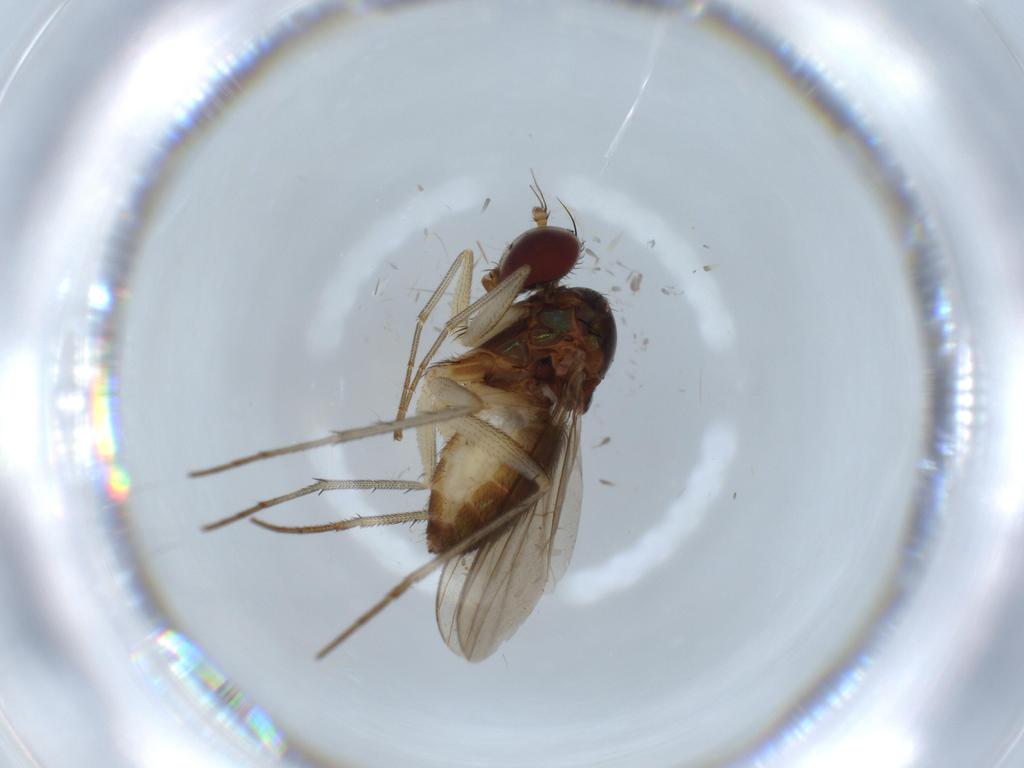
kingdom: Animalia
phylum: Arthropoda
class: Insecta
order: Diptera
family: Dolichopodidae
